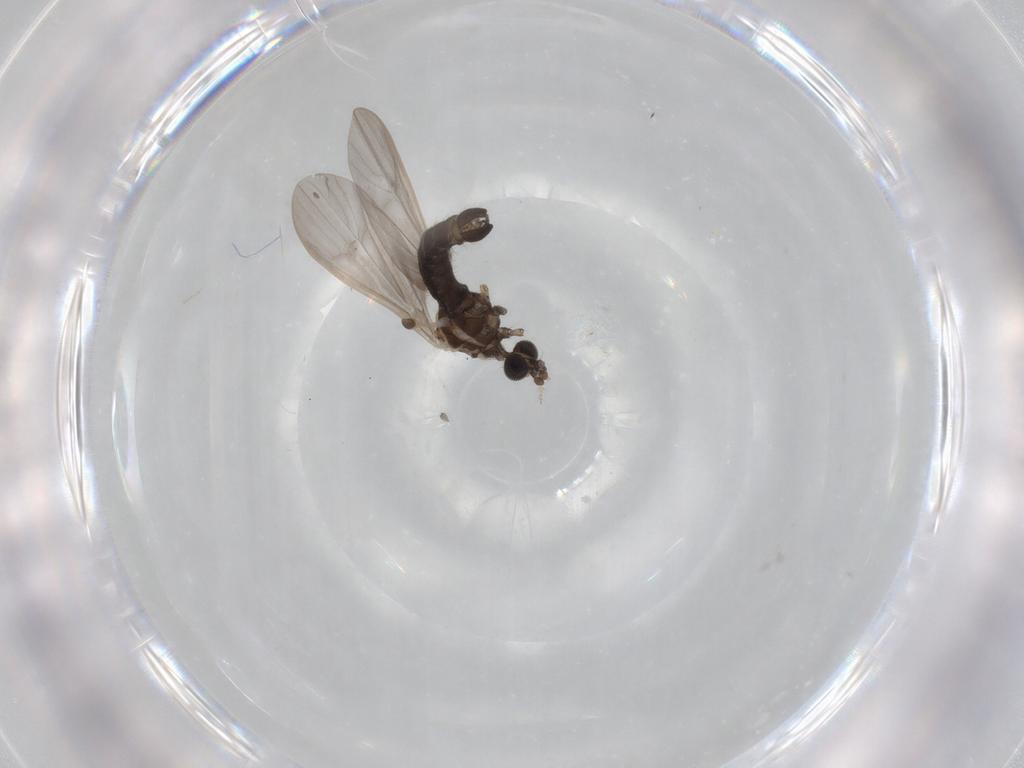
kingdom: Animalia
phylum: Arthropoda
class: Insecta
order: Diptera
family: Limoniidae
